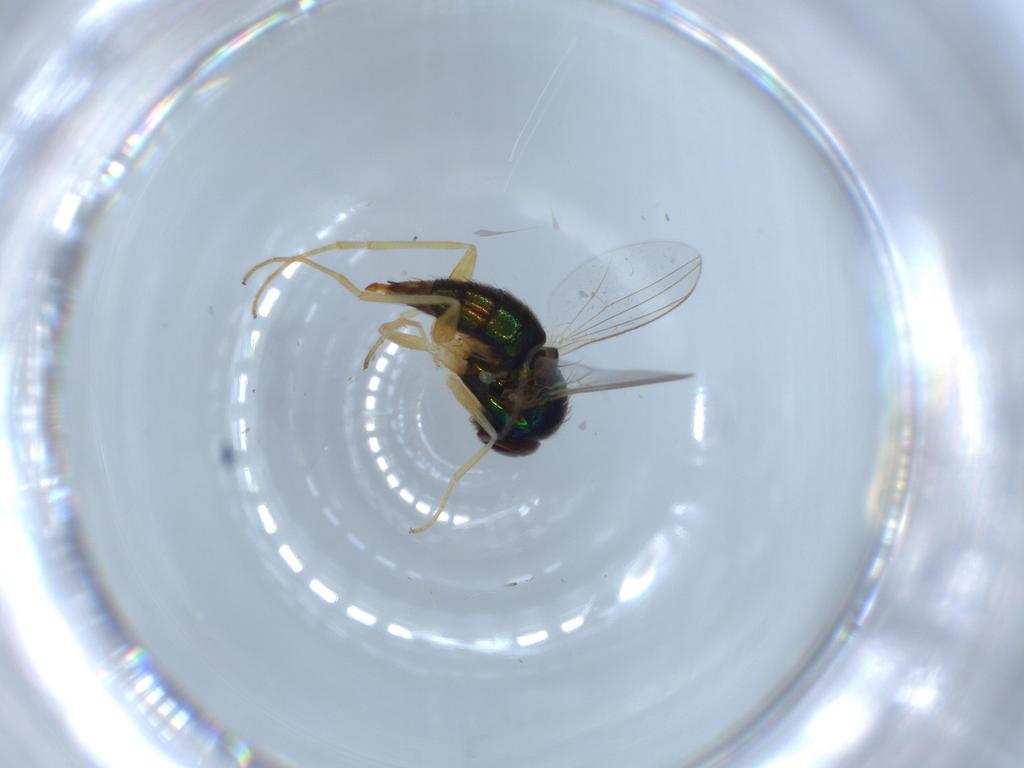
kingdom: Animalia
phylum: Arthropoda
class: Insecta
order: Diptera
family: Dolichopodidae
